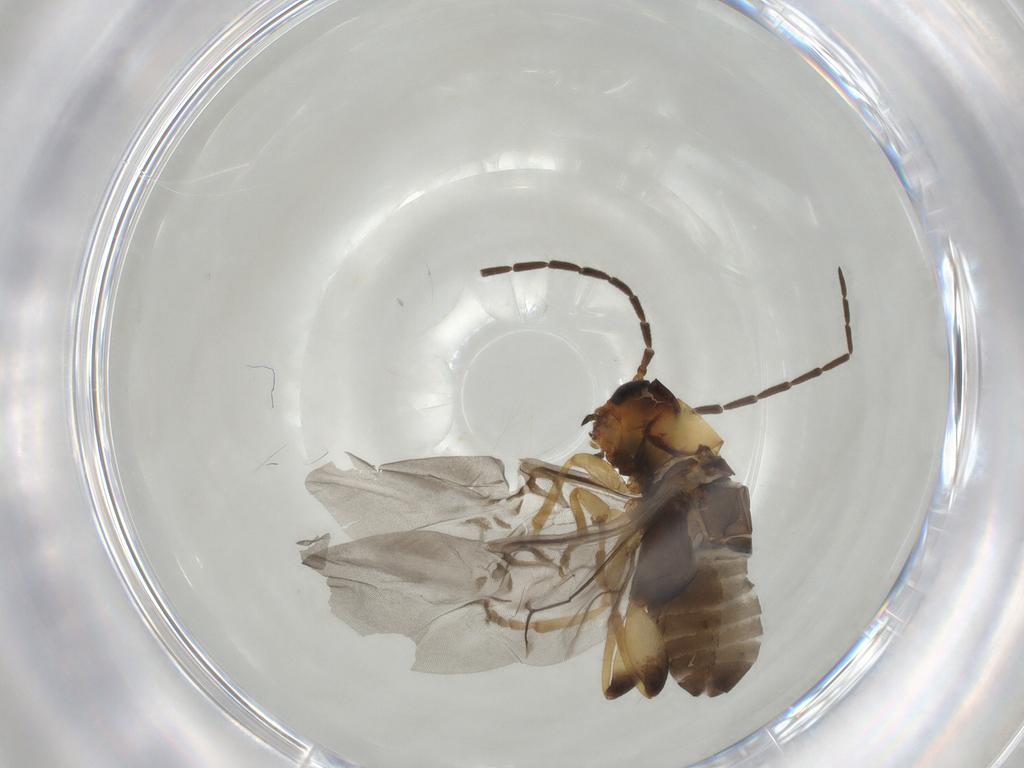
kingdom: Animalia
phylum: Arthropoda
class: Insecta
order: Coleoptera
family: Chrysomelidae
